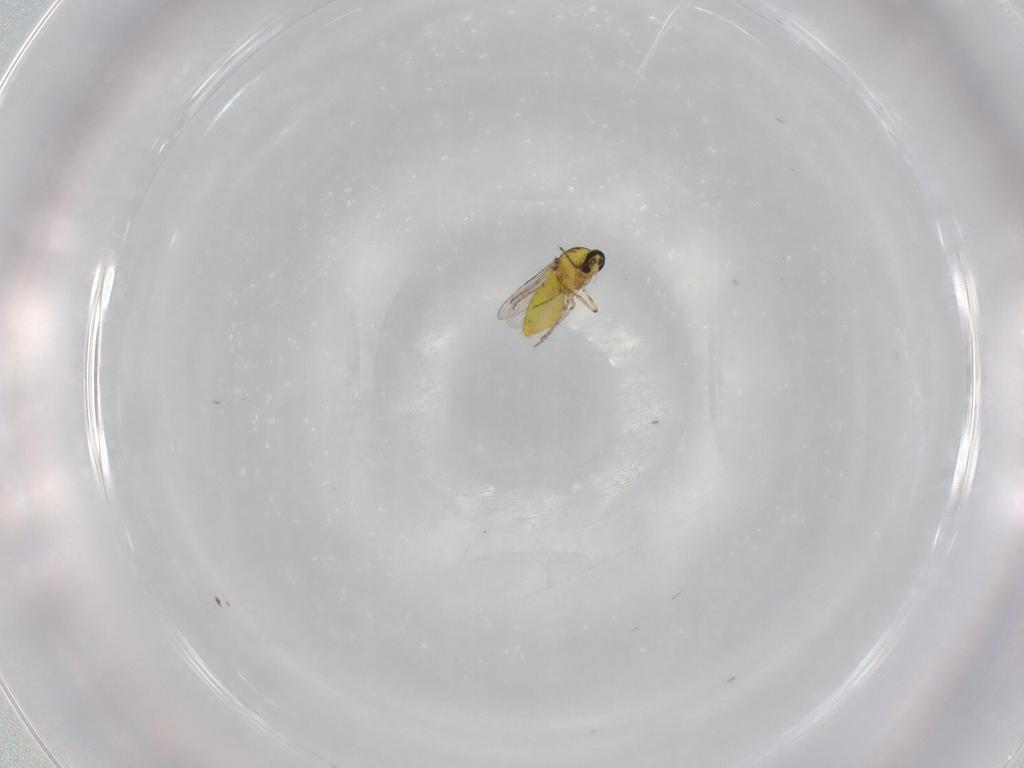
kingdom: Animalia
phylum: Arthropoda
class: Insecta
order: Diptera
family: Ceratopogonidae
